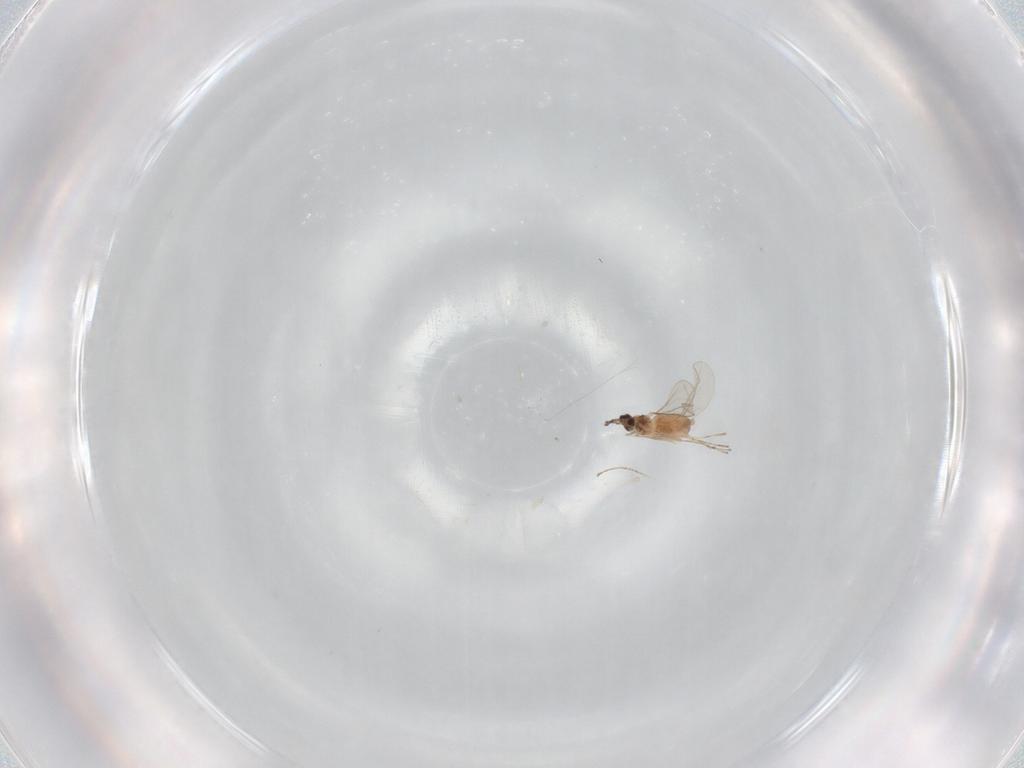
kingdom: Animalia
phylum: Arthropoda
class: Insecta
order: Diptera
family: Cecidomyiidae
